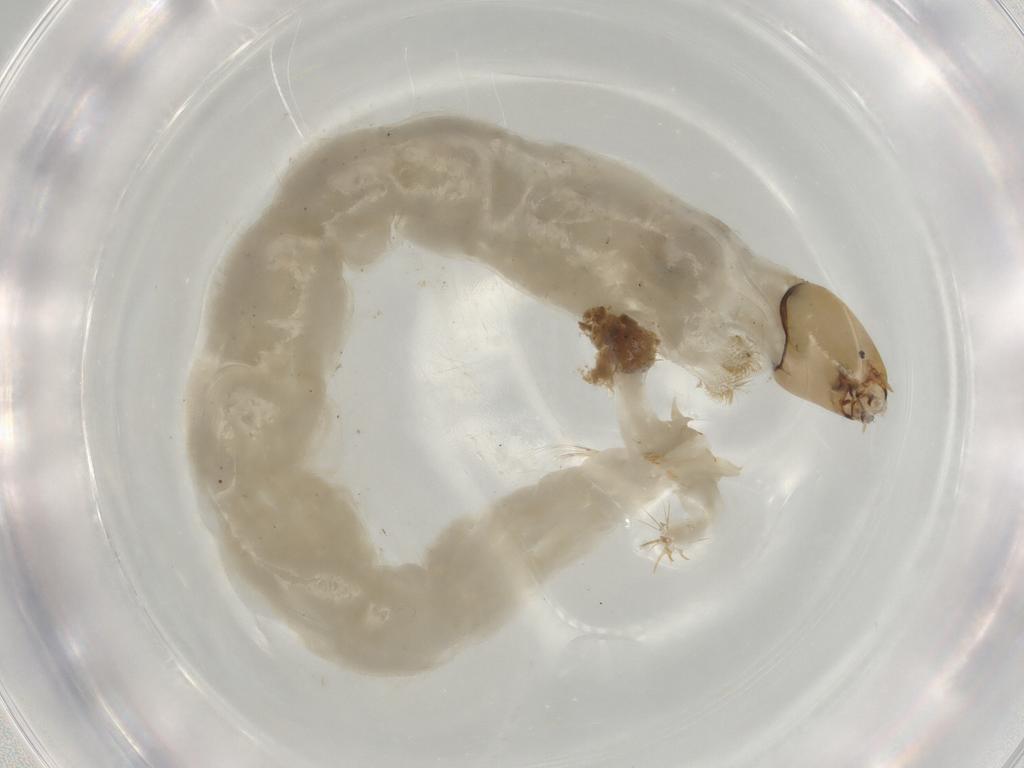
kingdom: Animalia
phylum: Arthropoda
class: Insecta
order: Diptera
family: Chironomidae
